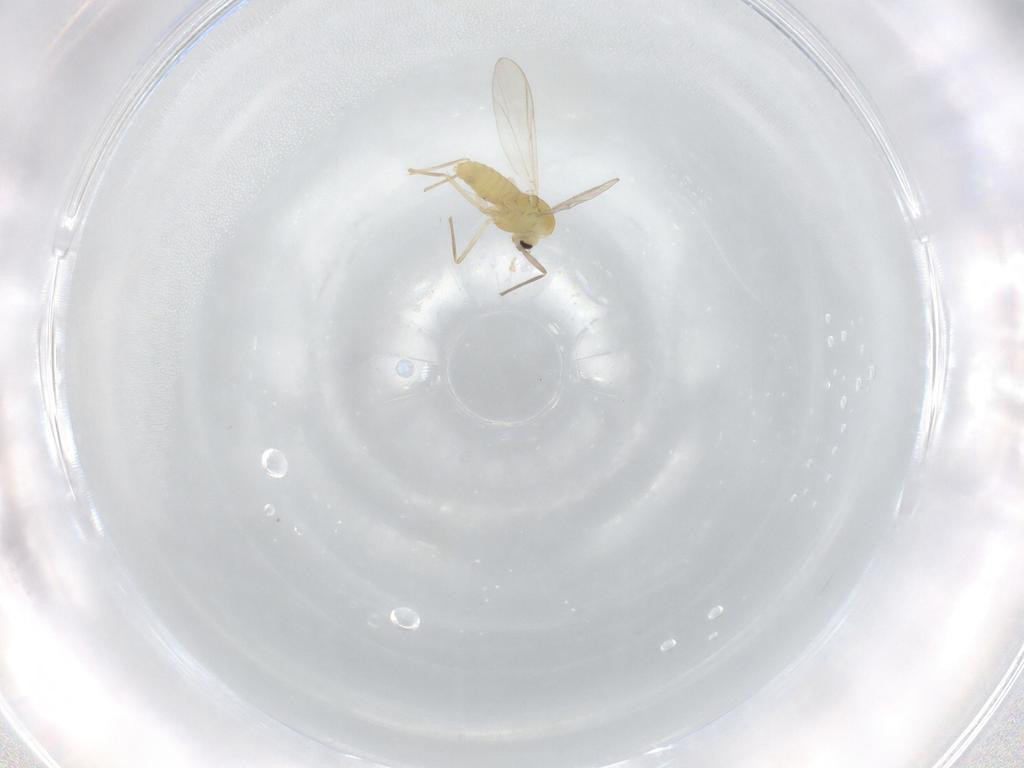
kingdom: Animalia
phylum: Arthropoda
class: Insecta
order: Diptera
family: Chironomidae
